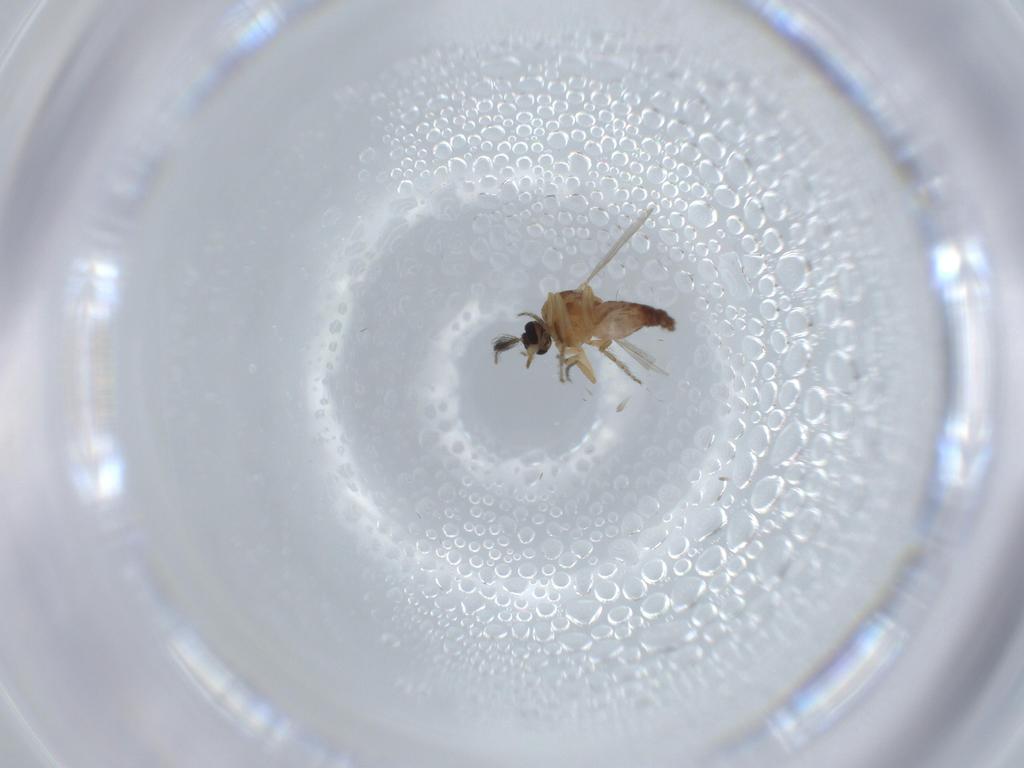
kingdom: Animalia
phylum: Arthropoda
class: Insecta
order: Diptera
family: Ceratopogonidae
